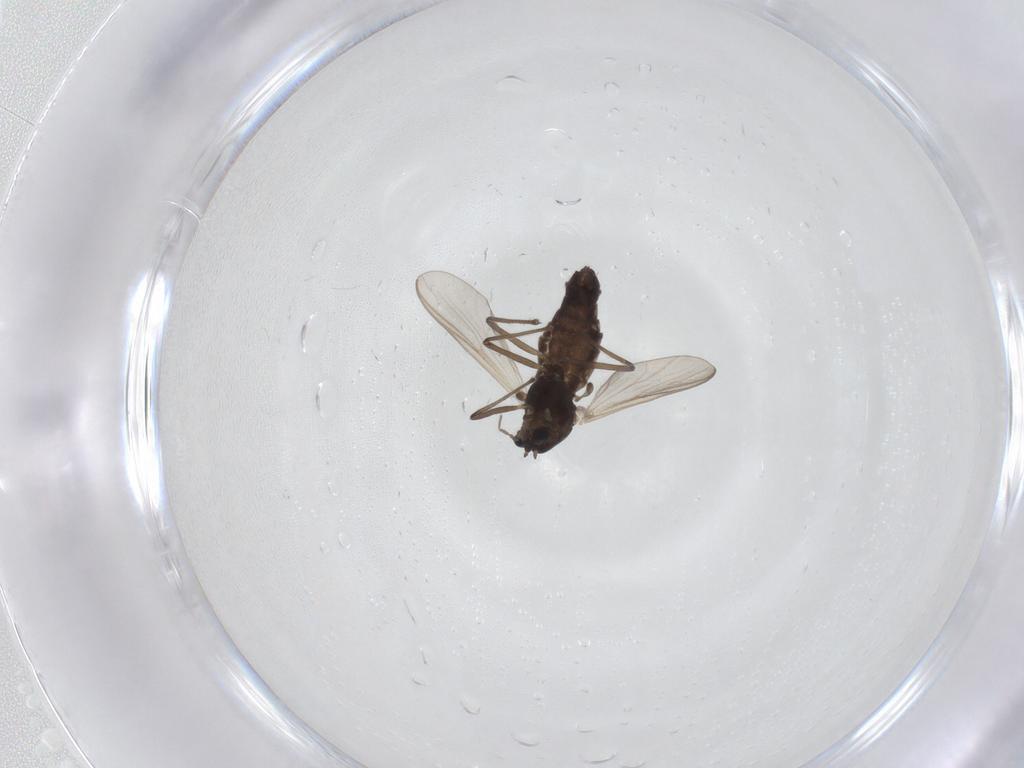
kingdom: Animalia
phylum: Arthropoda
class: Insecta
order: Diptera
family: Chironomidae
